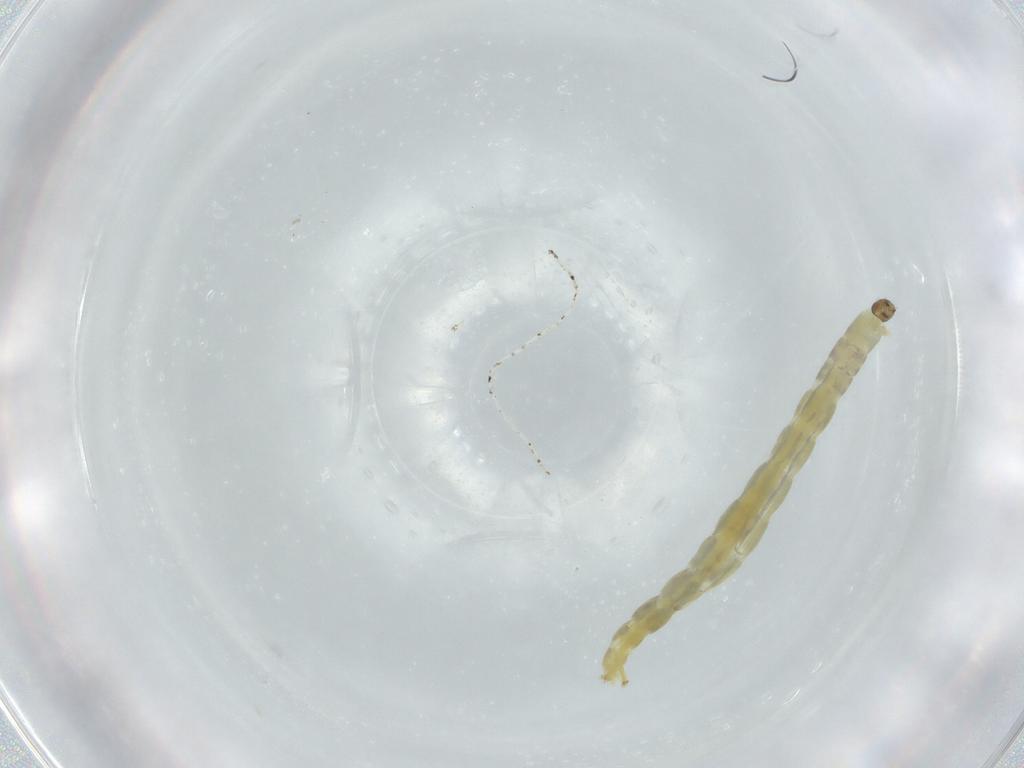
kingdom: Animalia
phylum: Arthropoda
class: Insecta
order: Diptera
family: Chironomidae
